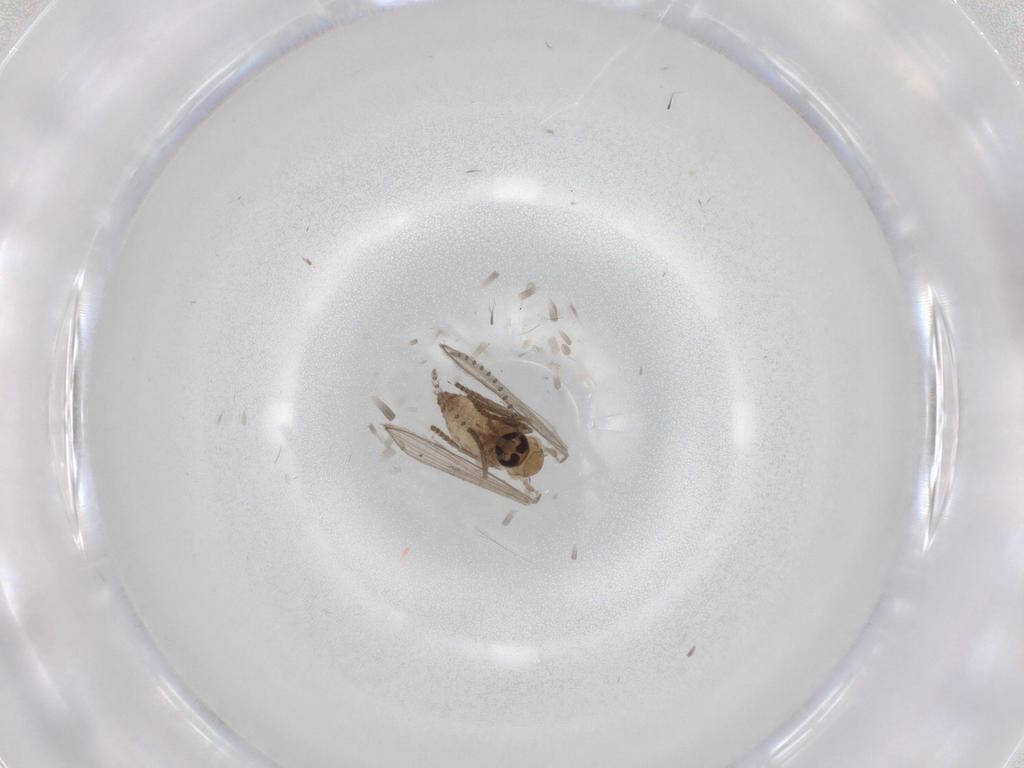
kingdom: Animalia
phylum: Arthropoda
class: Insecta
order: Diptera
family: Psychodidae
